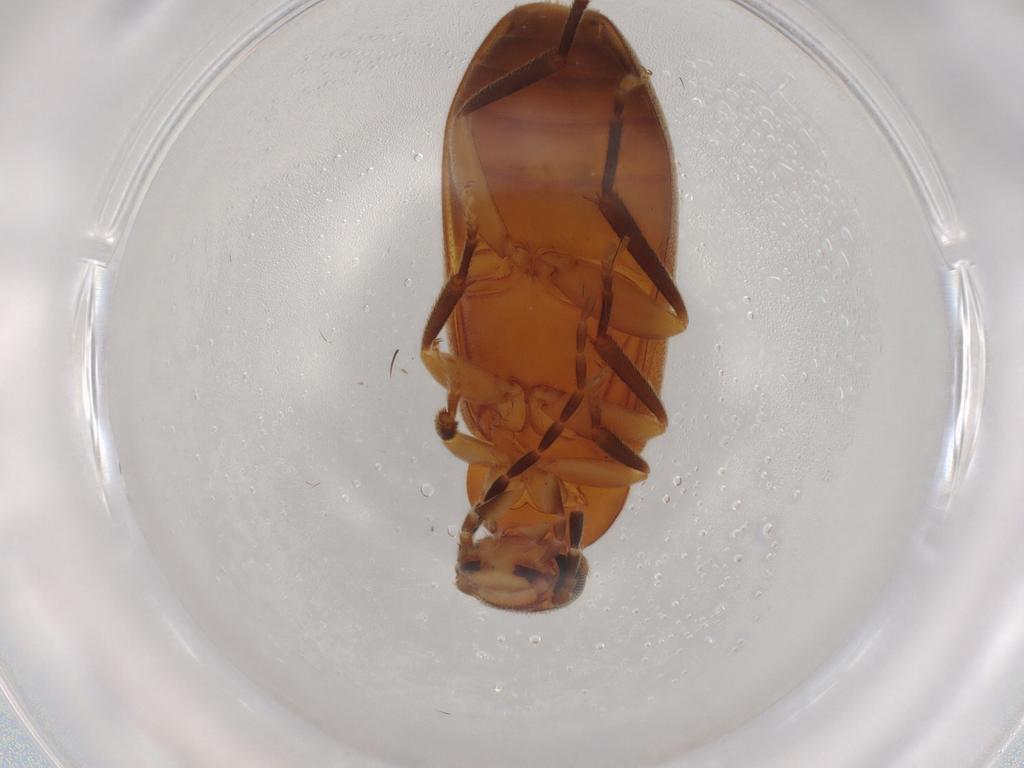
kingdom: Animalia
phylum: Arthropoda
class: Insecta
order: Coleoptera
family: Scraptiidae
